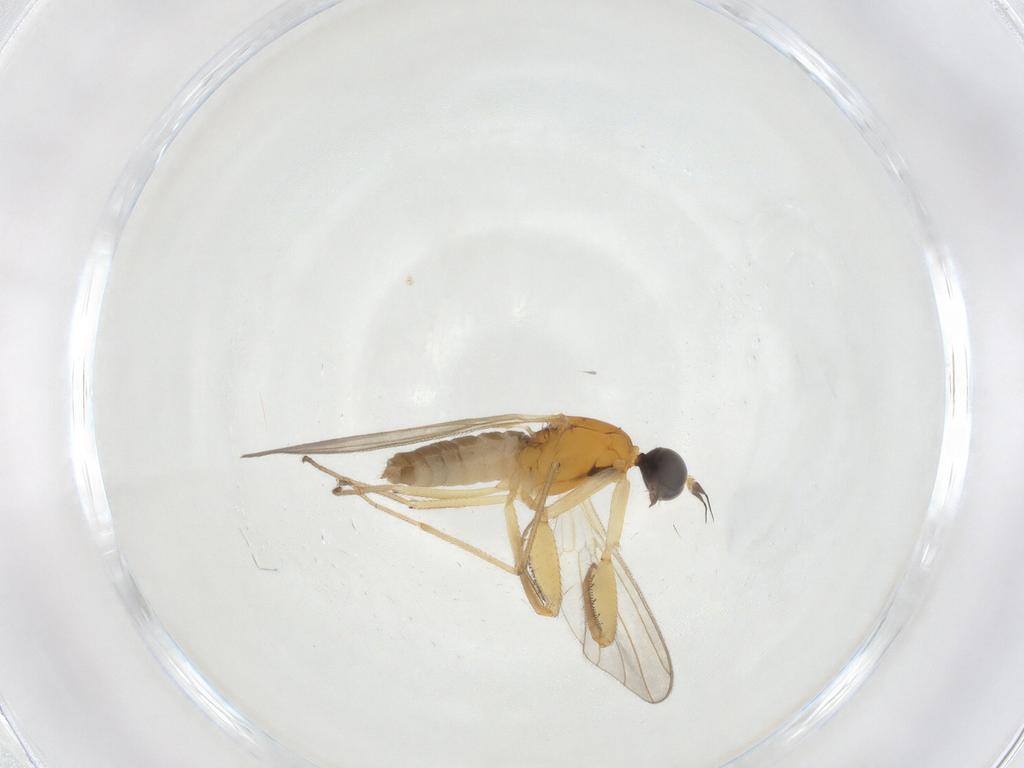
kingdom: Animalia
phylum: Arthropoda
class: Insecta
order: Diptera
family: Empididae
